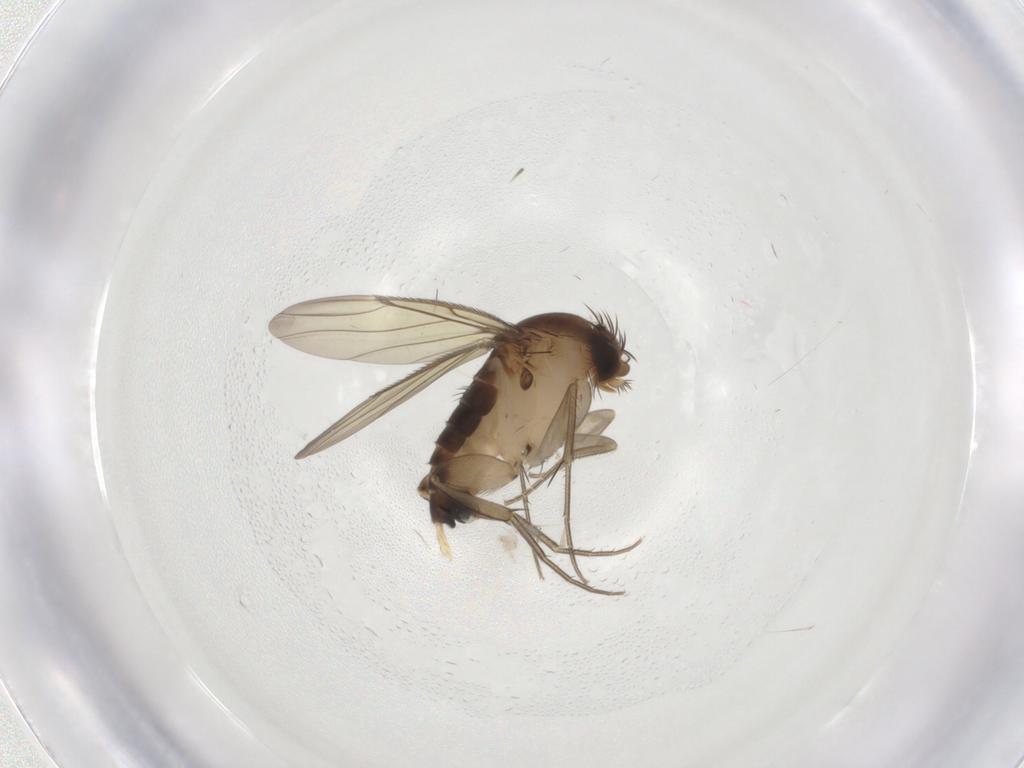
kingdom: Animalia
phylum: Arthropoda
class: Insecta
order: Diptera
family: Phoridae
